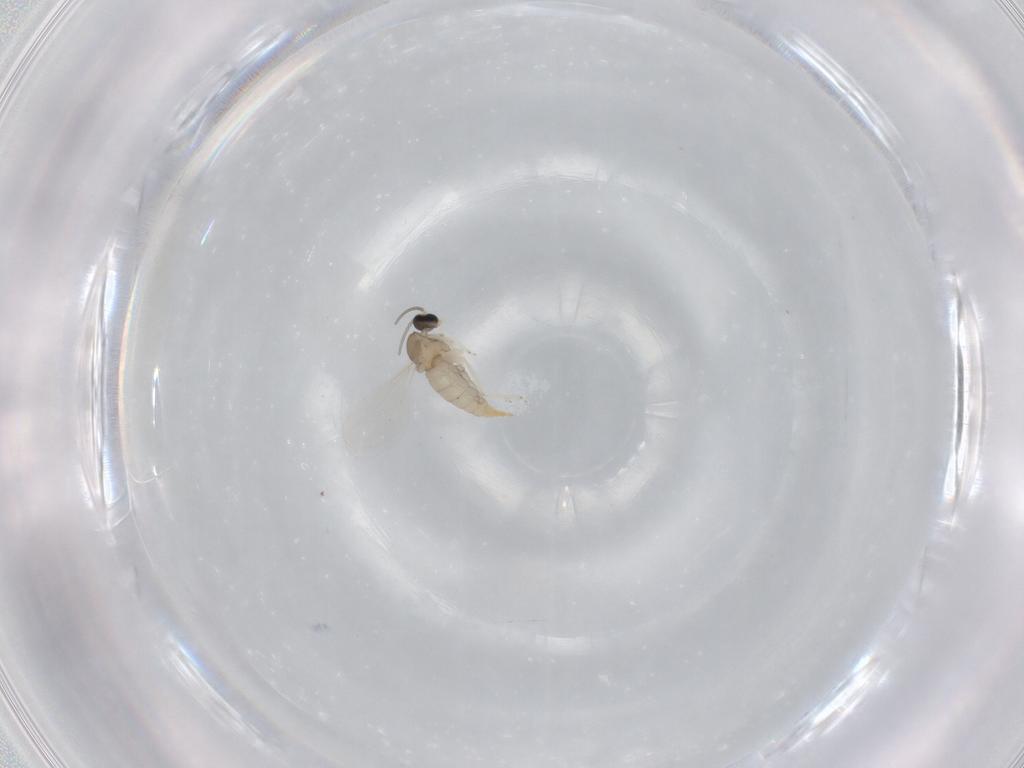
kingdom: Animalia
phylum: Arthropoda
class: Insecta
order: Diptera
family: Cecidomyiidae
